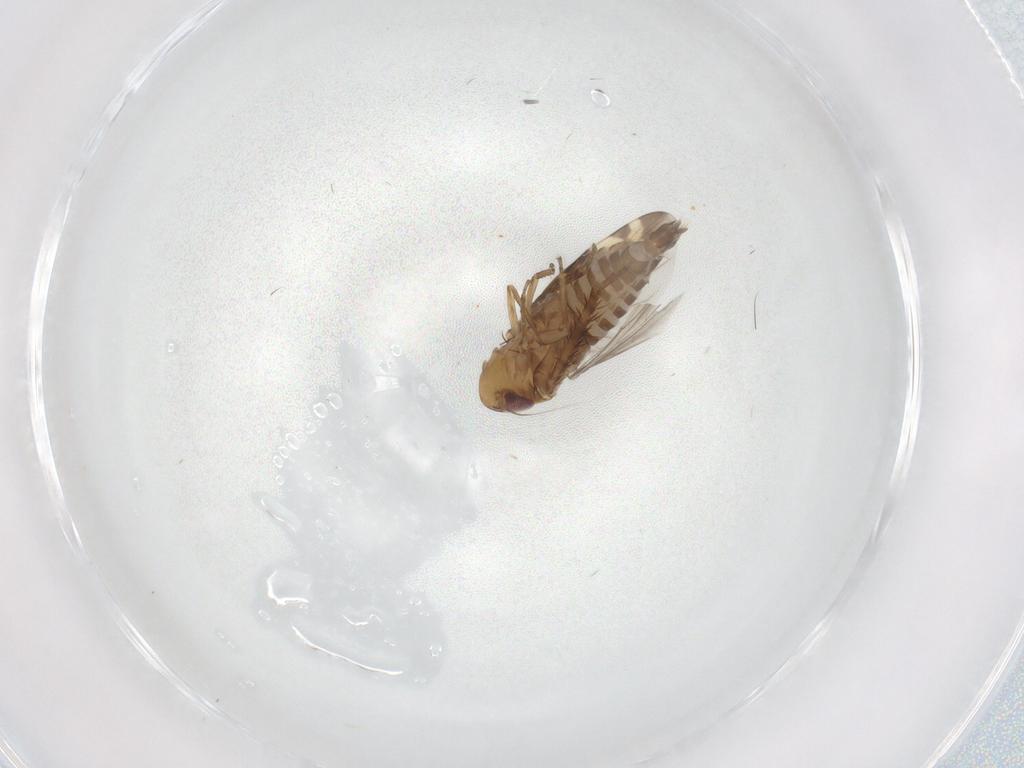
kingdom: Animalia
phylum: Arthropoda
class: Insecta
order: Hemiptera
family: Cicadellidae
